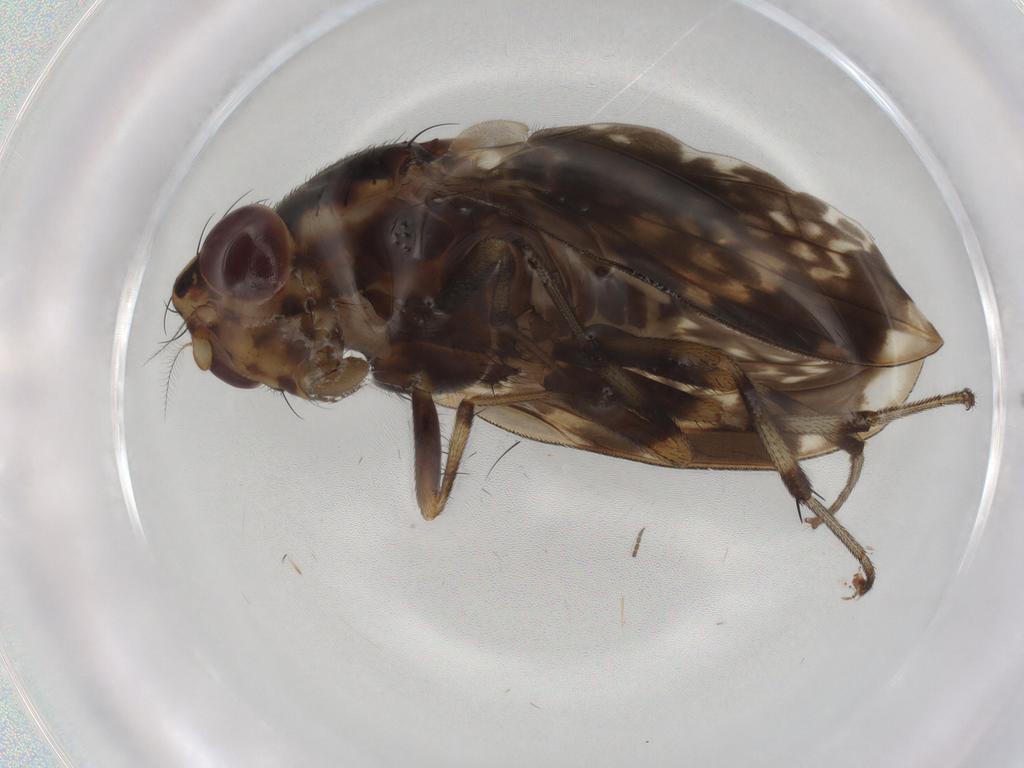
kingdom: Animalia
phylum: Arthropoda
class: Insecta
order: Diptera
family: Sciaridae
